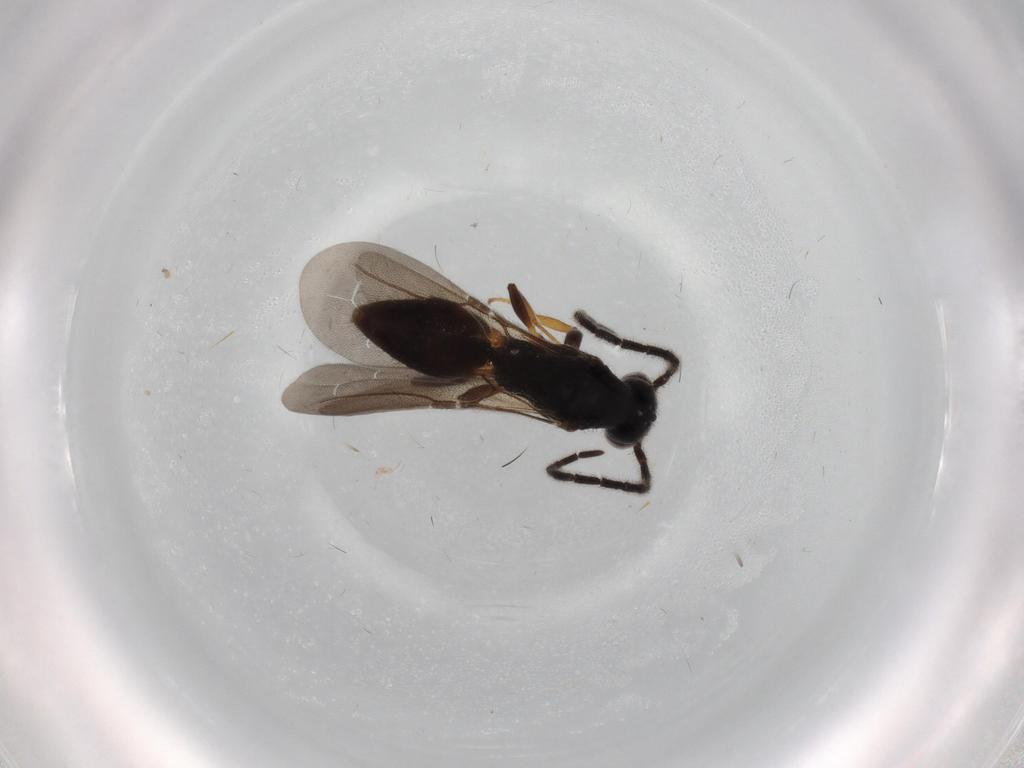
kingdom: Animalia
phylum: Arthropoda
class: Insecta
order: Hymenoptera
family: Bethylidae
